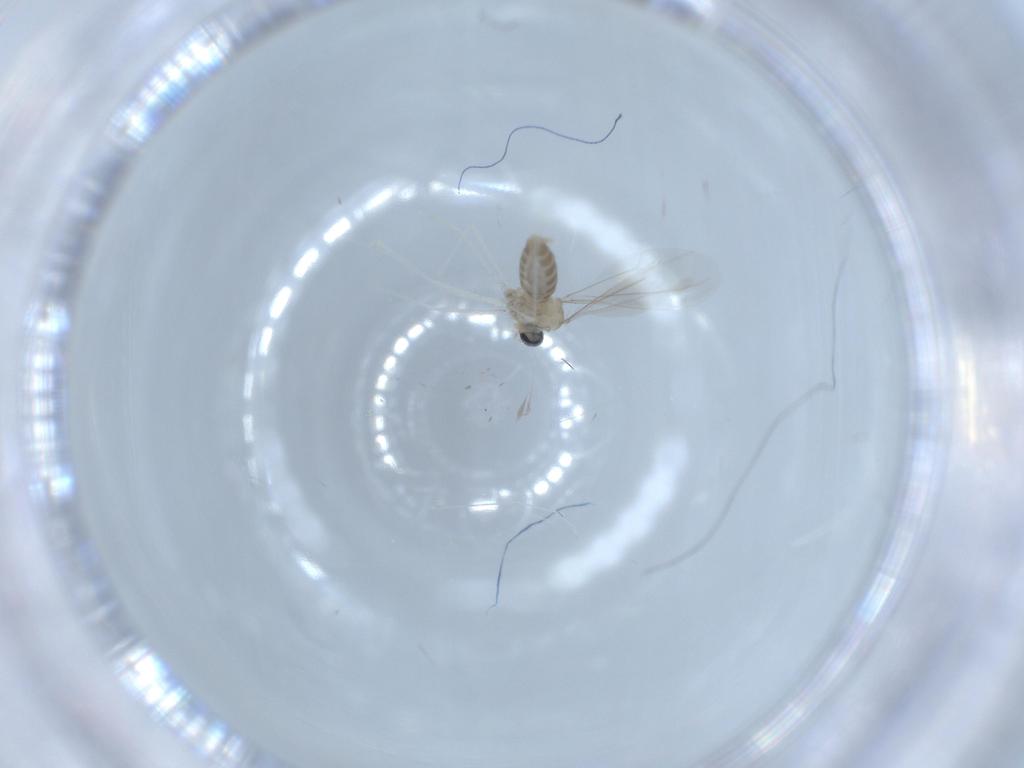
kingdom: Animalia
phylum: Arthropoda
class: Insecta
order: Diptera
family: Cecidomyiidae
